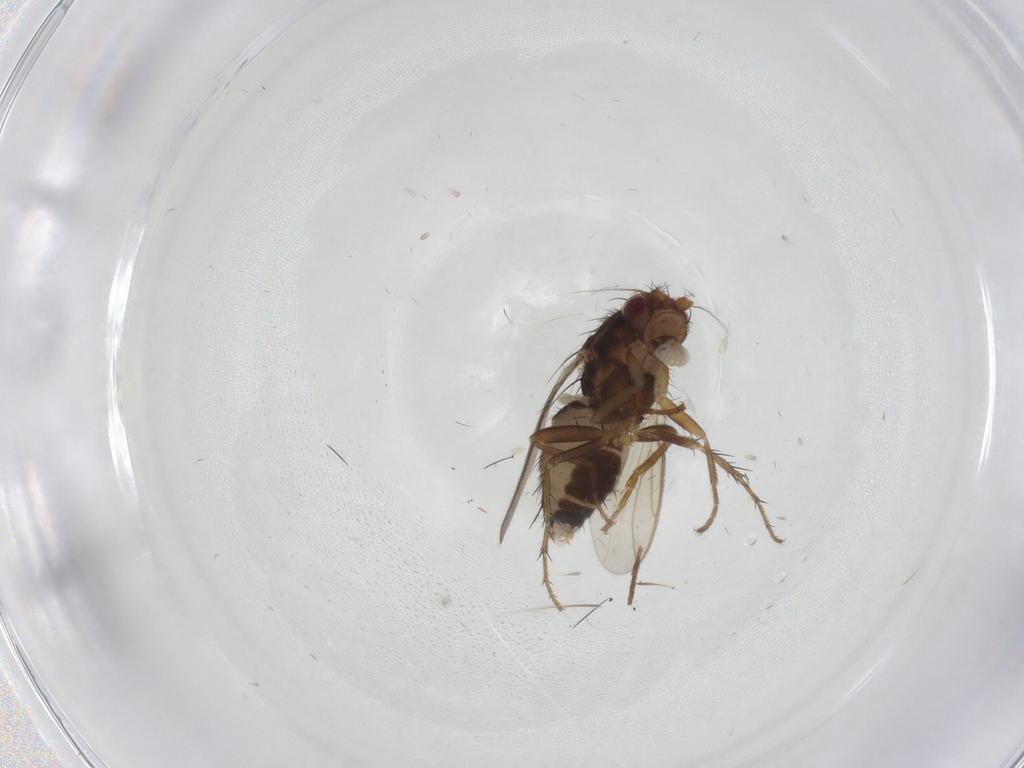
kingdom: Animalia
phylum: Arthropoda
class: Insecta
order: Diptera
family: Sphaeroceridae
